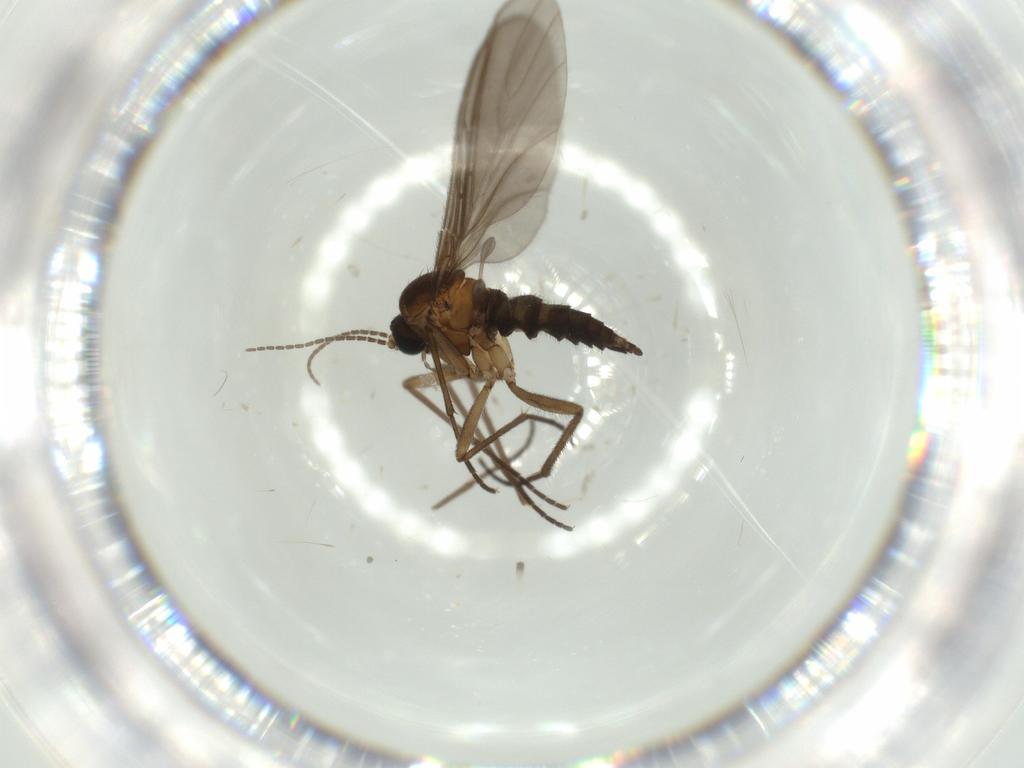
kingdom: Animalia
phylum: Arthropoda
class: Insecta
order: Diptera
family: Sciaridae
